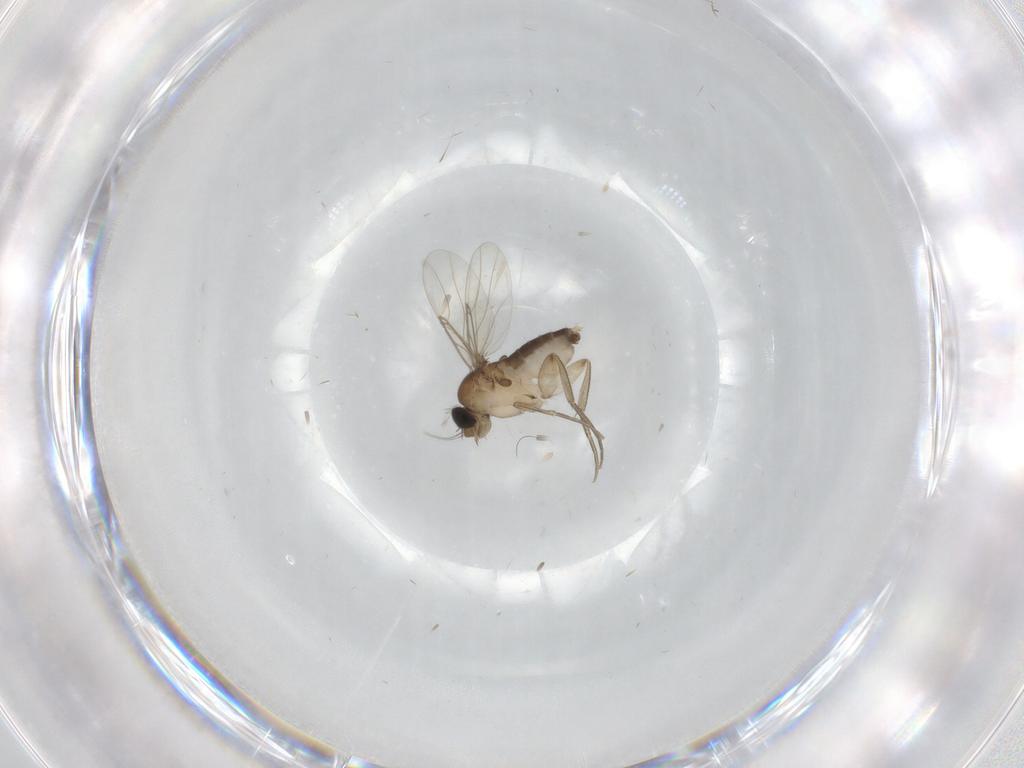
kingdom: Animalia
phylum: Arthropoda
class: Insecta
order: Diptera
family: Phoridae
